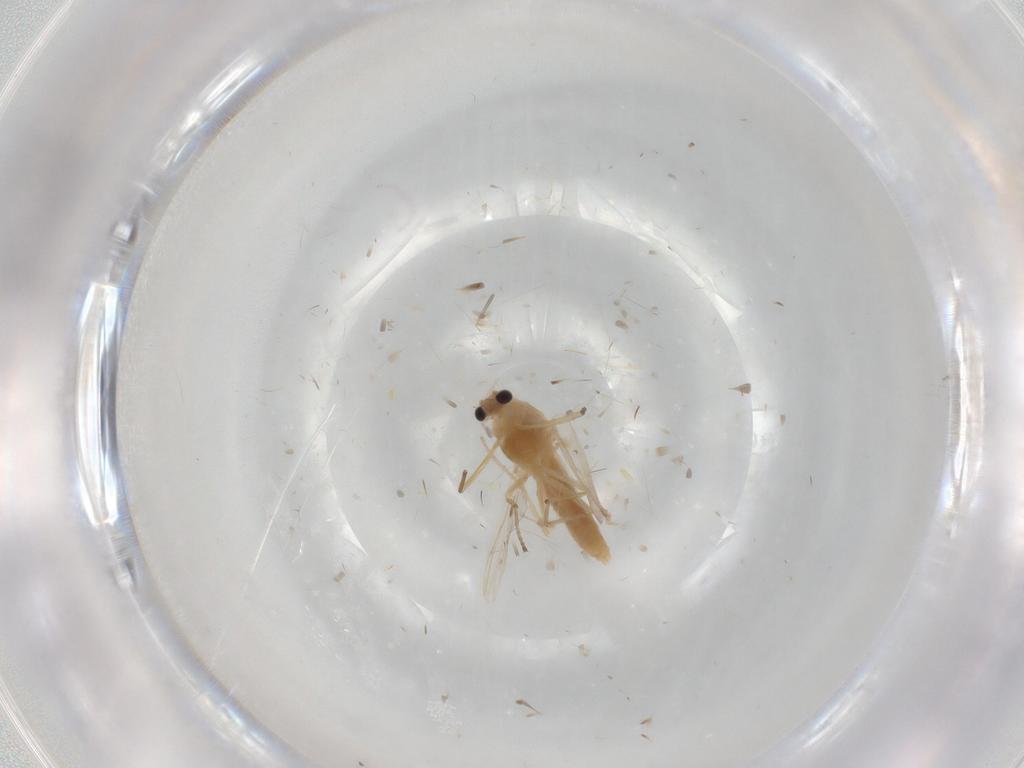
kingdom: Animalia
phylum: Arthropoda
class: Insecta
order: Diptera
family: Chironomidae
